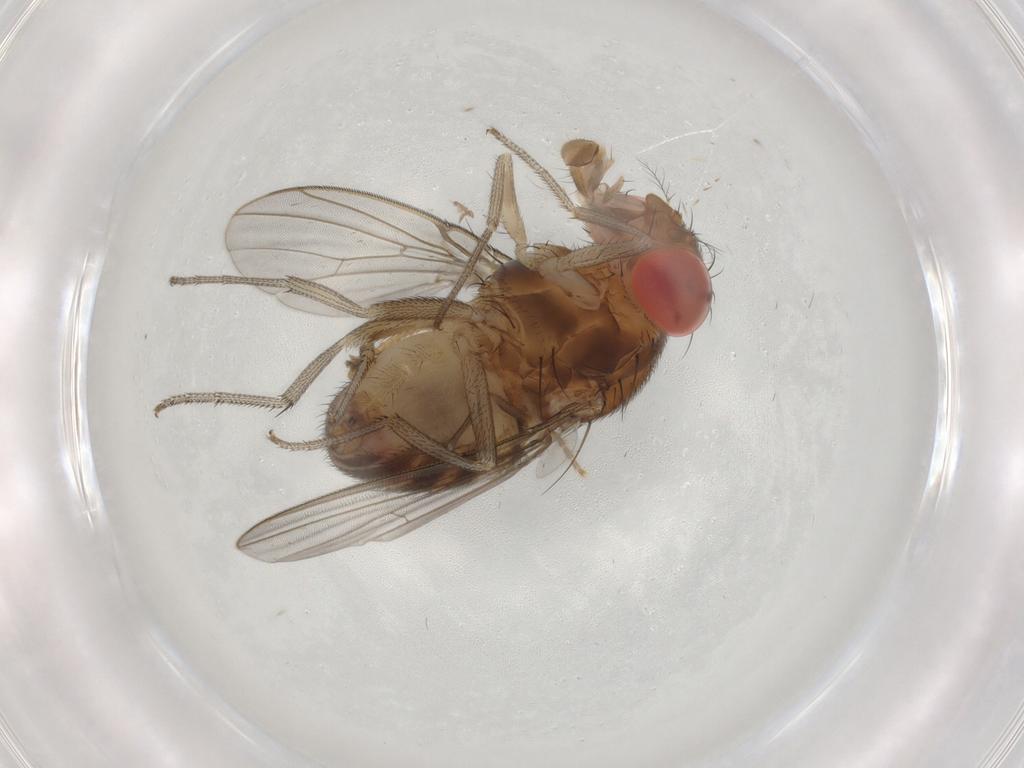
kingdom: Animalia
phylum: Arthropoda
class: Insecta
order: Diptera
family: Drosophilidae
